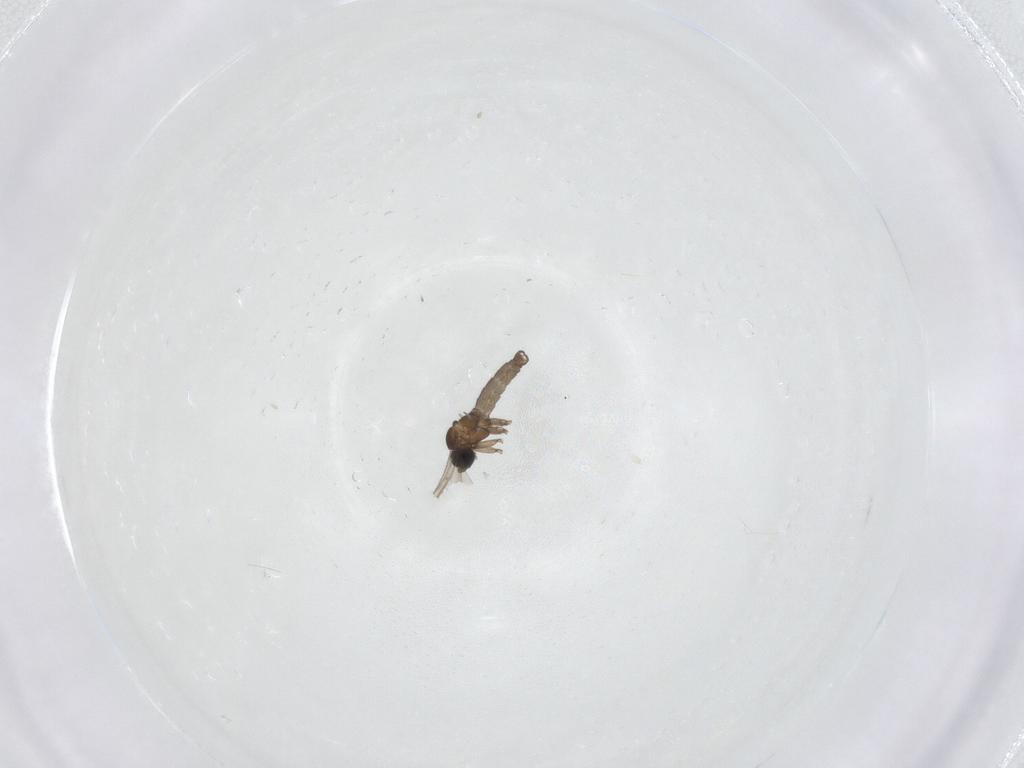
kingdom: Animalia
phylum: Arthropoda
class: Insecta
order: Diptera
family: Sciaridae
